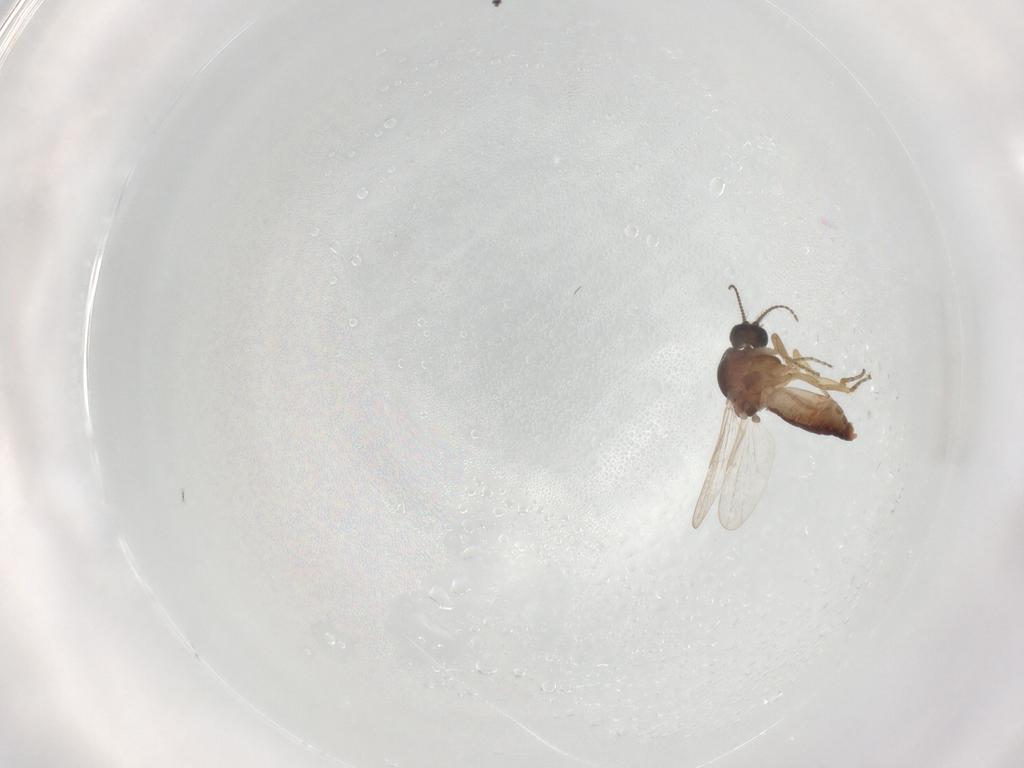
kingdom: Animalia
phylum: Arthropoda
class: Insecta
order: Diptera
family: Ceratopogonidae
